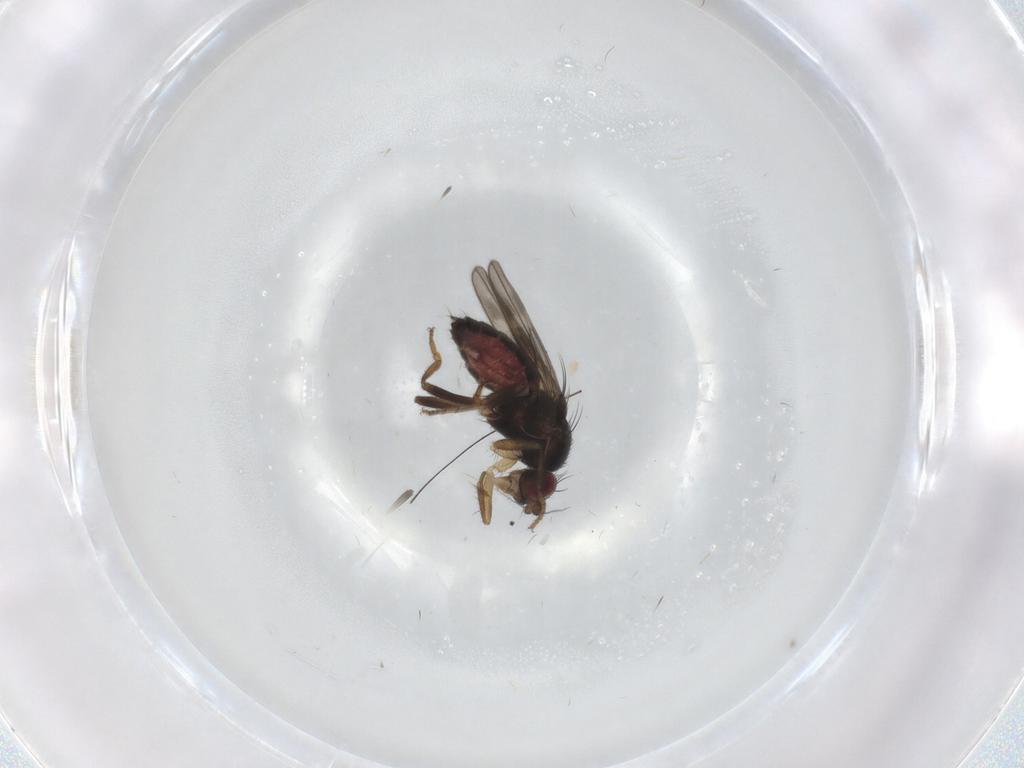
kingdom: Animalia
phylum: Arthropoda
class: Insecta
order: Diptera
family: Sphaeroceridae
